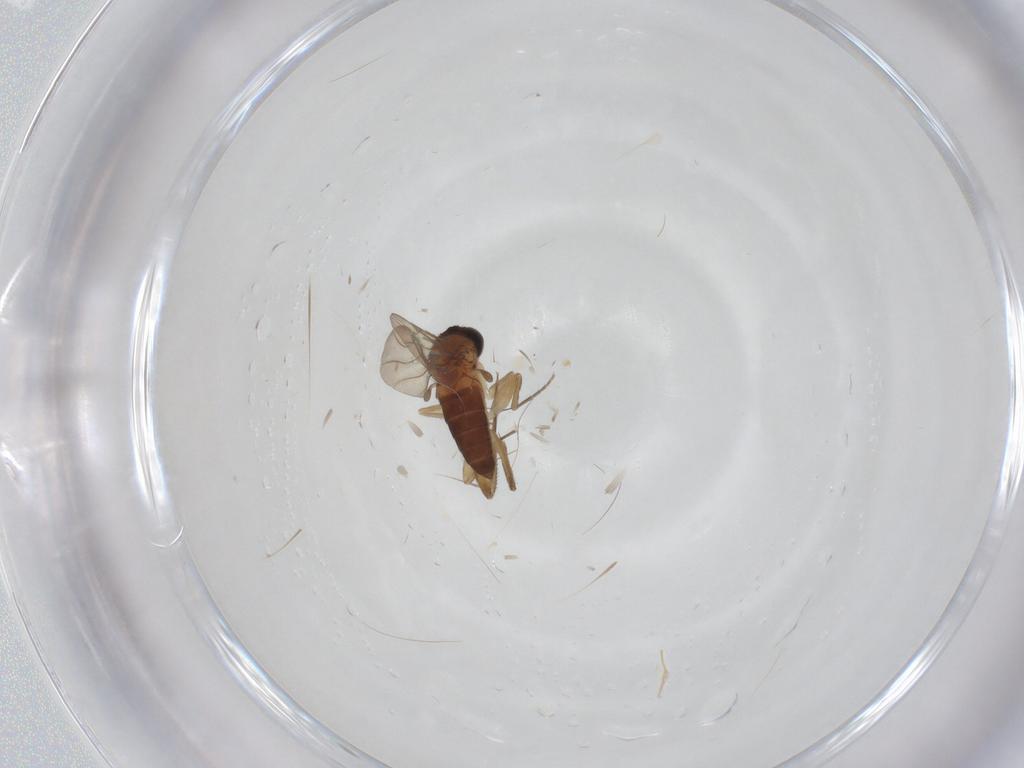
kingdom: Animalia
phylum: Arthropoda
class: Insecta
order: Diptera
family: Phoridae
